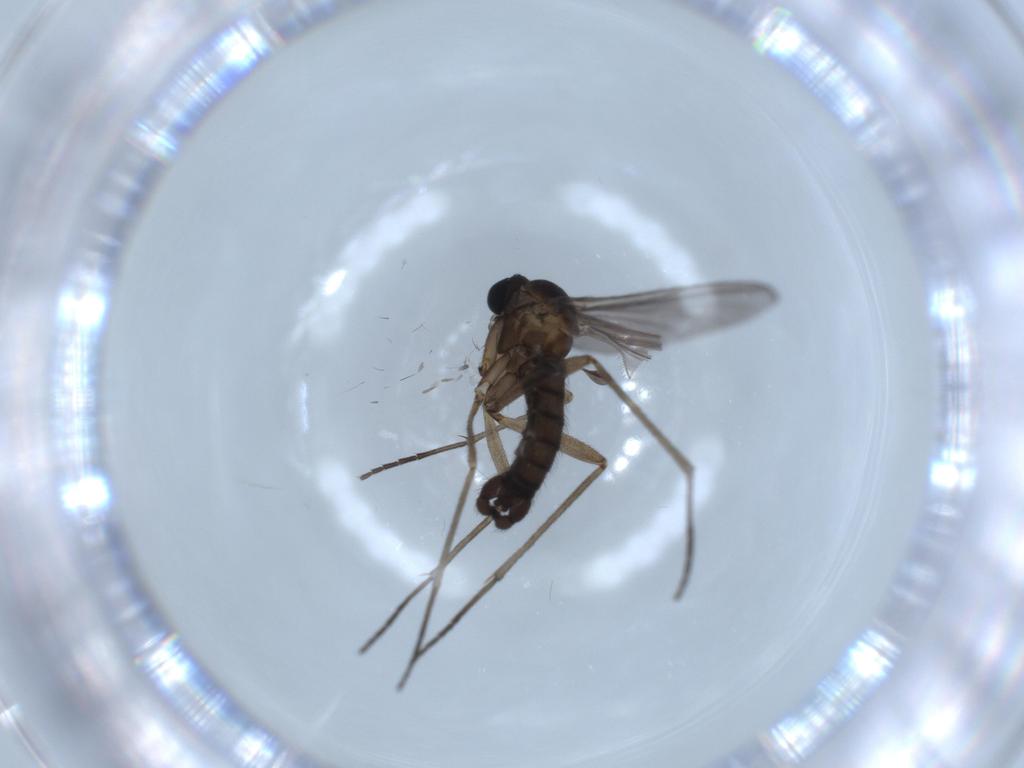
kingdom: Animalia
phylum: Arthropoda
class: Insecta
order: Diptera
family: Sciaridae
